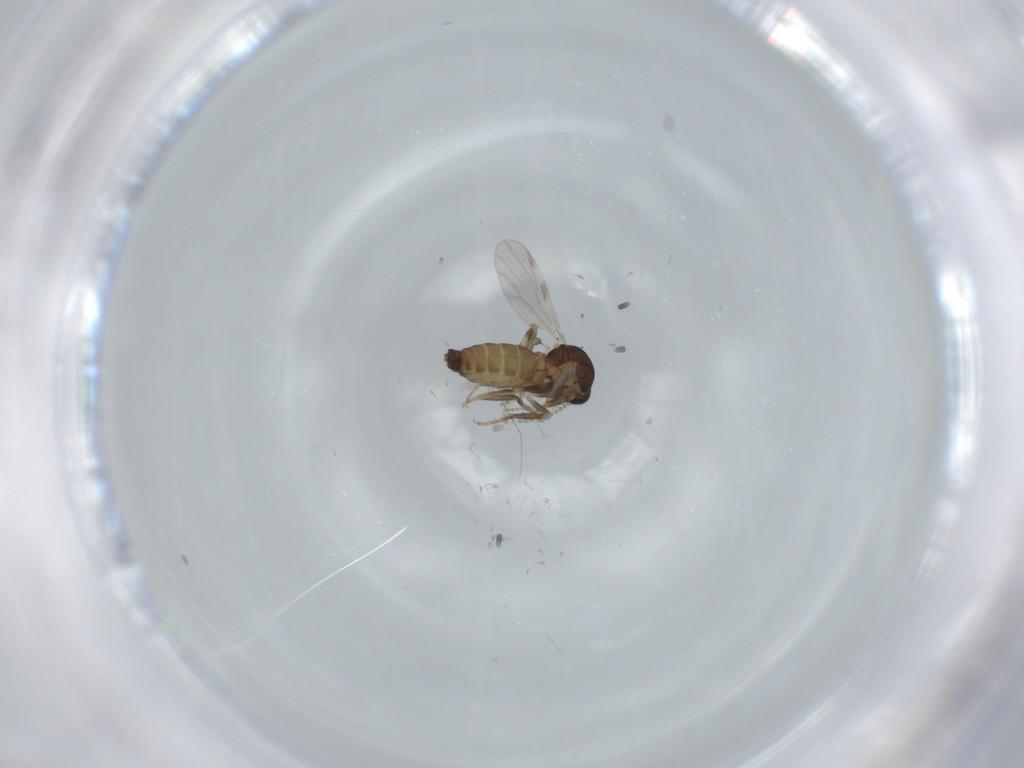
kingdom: Animalia
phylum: Arthropoda
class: Insecta
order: Diptera
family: Ceratopogonidae
